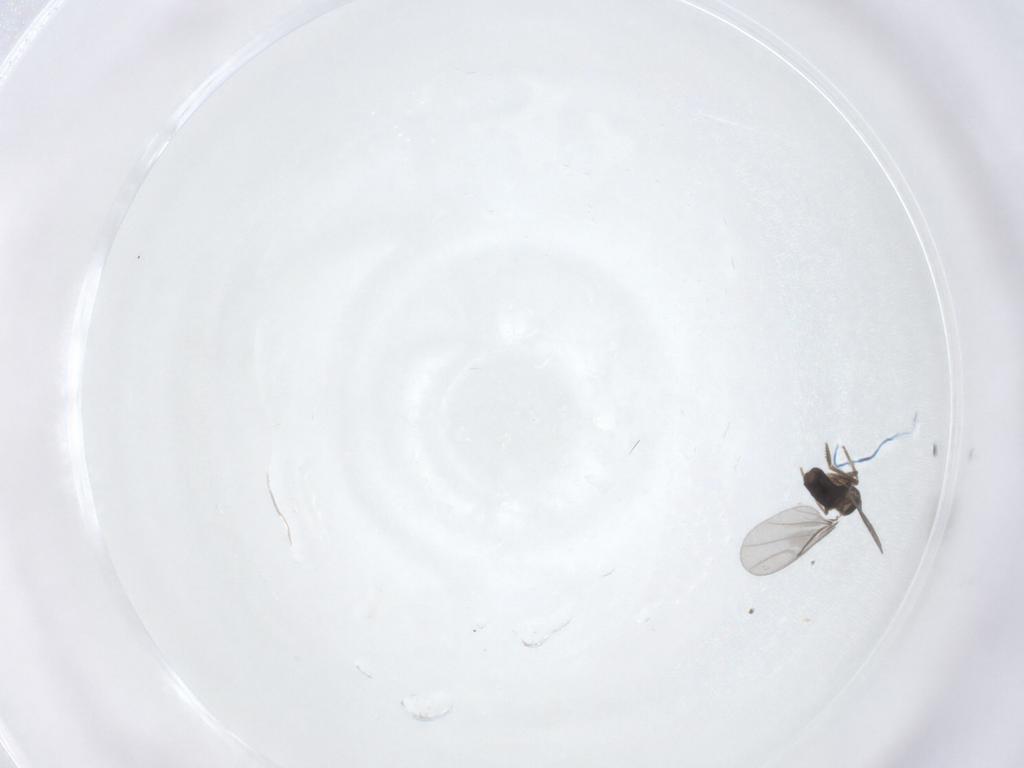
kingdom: Animalia
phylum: Arthropoda
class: Insecta
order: Diptera
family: Phoridae
